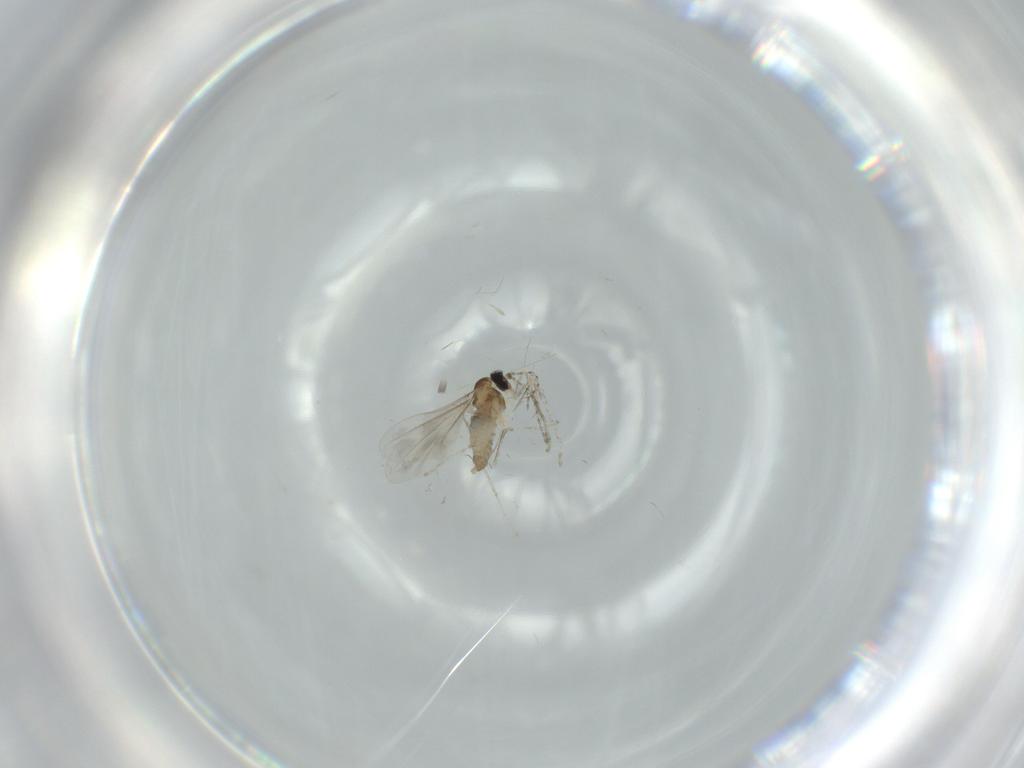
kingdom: Animalia
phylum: Arthropoda
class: Insecta
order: Diptera
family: Cecidomyiidae
